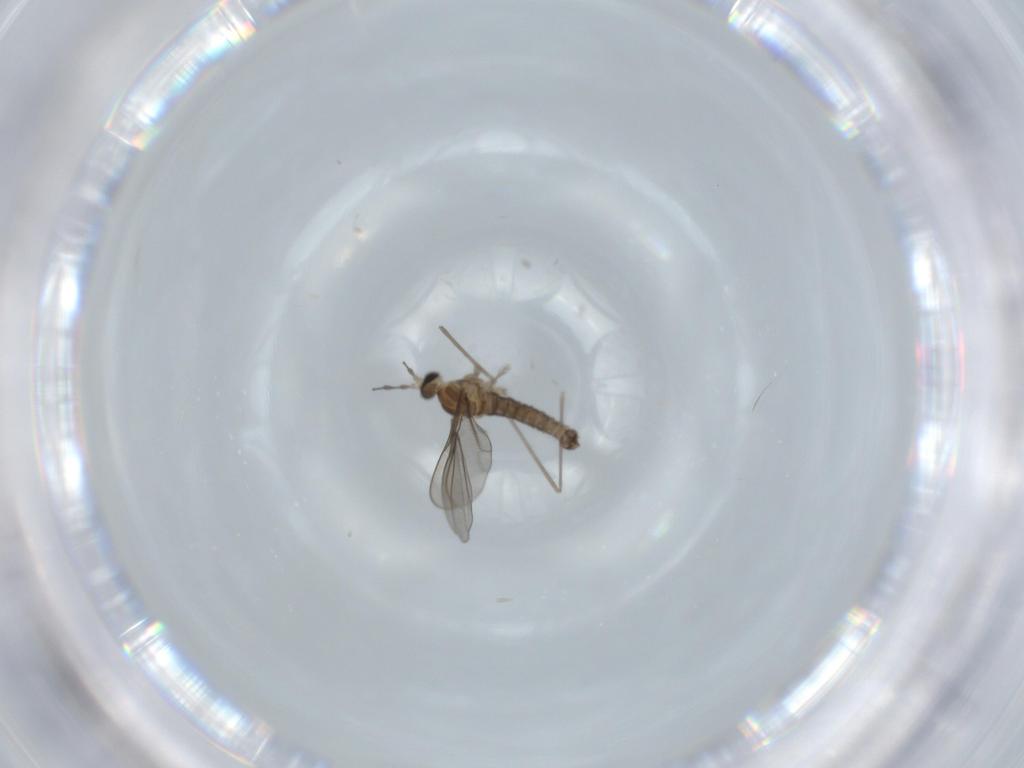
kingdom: Animalia
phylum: Arthropoda
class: Insecta
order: Diptera
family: Cecidomyiidae
